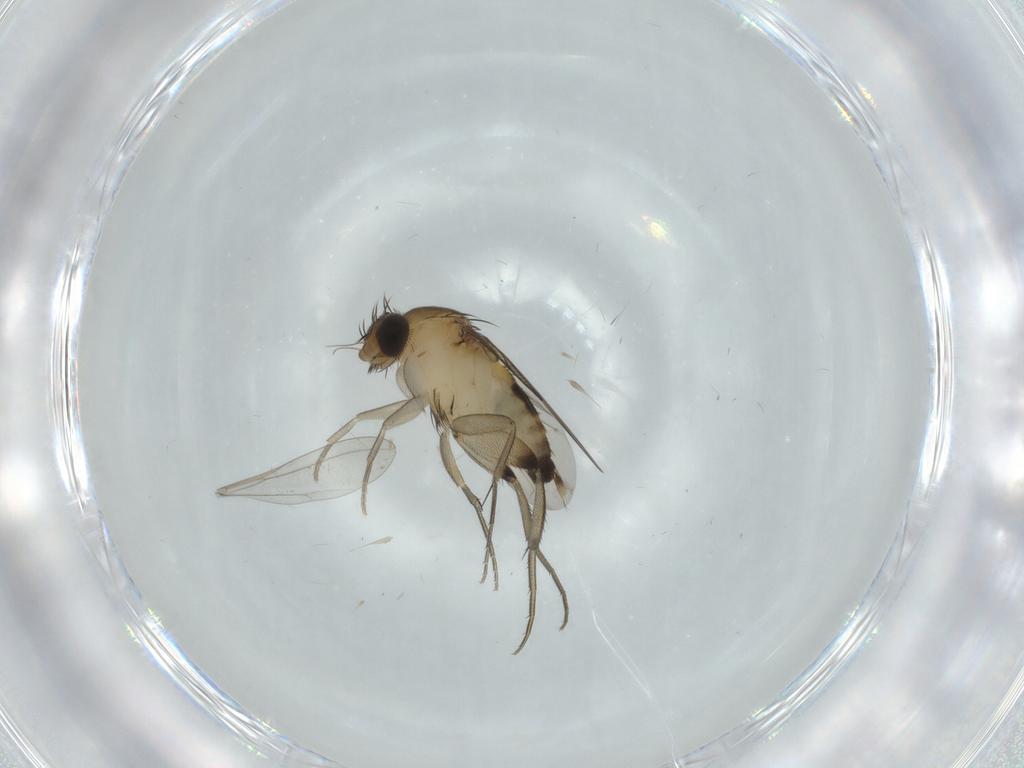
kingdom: Animalia
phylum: Arthropoda
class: Insecta
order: Diptera
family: Phoridae
